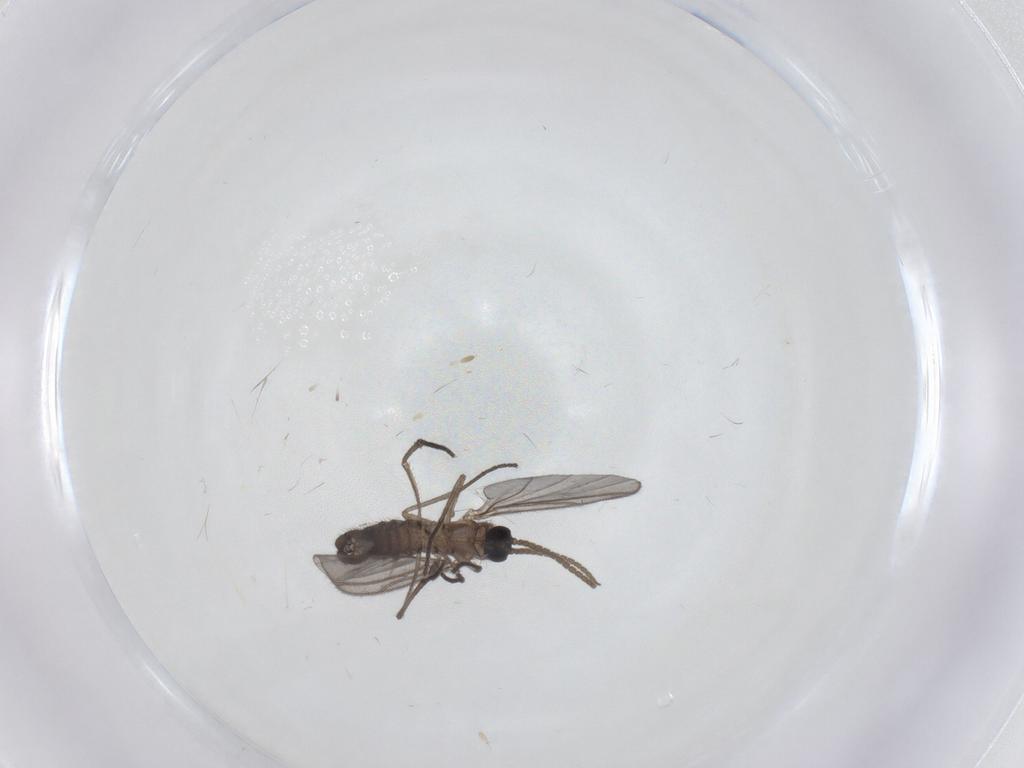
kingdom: Animalia
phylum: Arthropoda
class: Insecta
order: Diptera
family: Sciaridae
